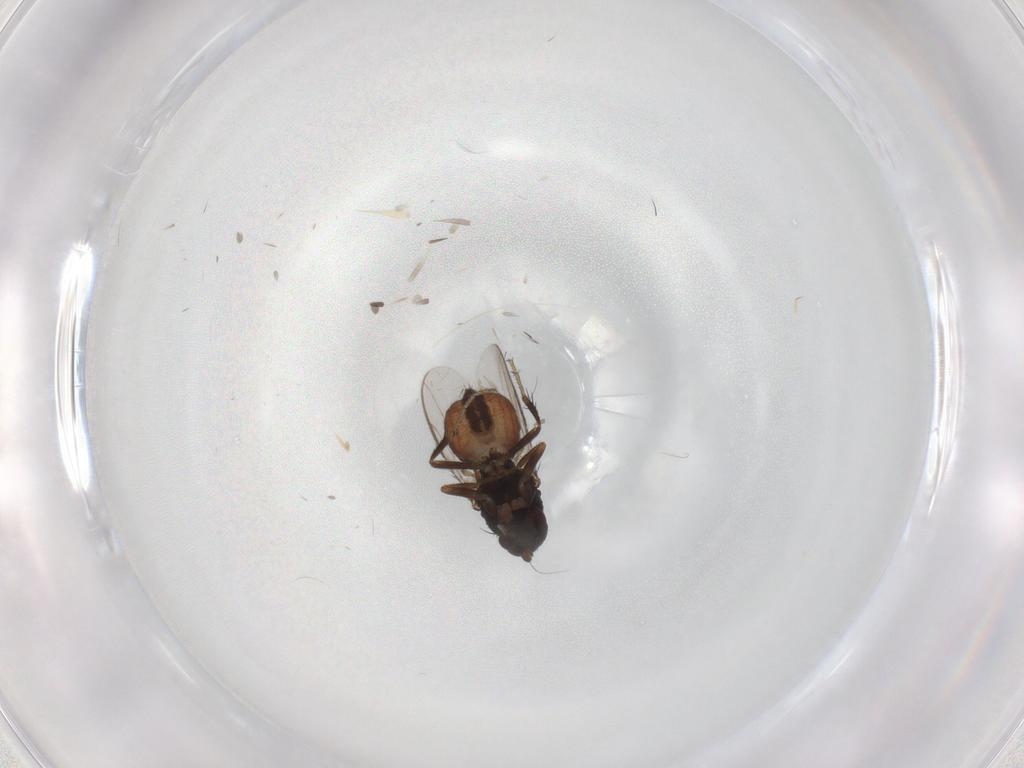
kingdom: Animalia
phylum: Arthropoda
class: Insecta
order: Diptera
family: Sphaeroceridae
